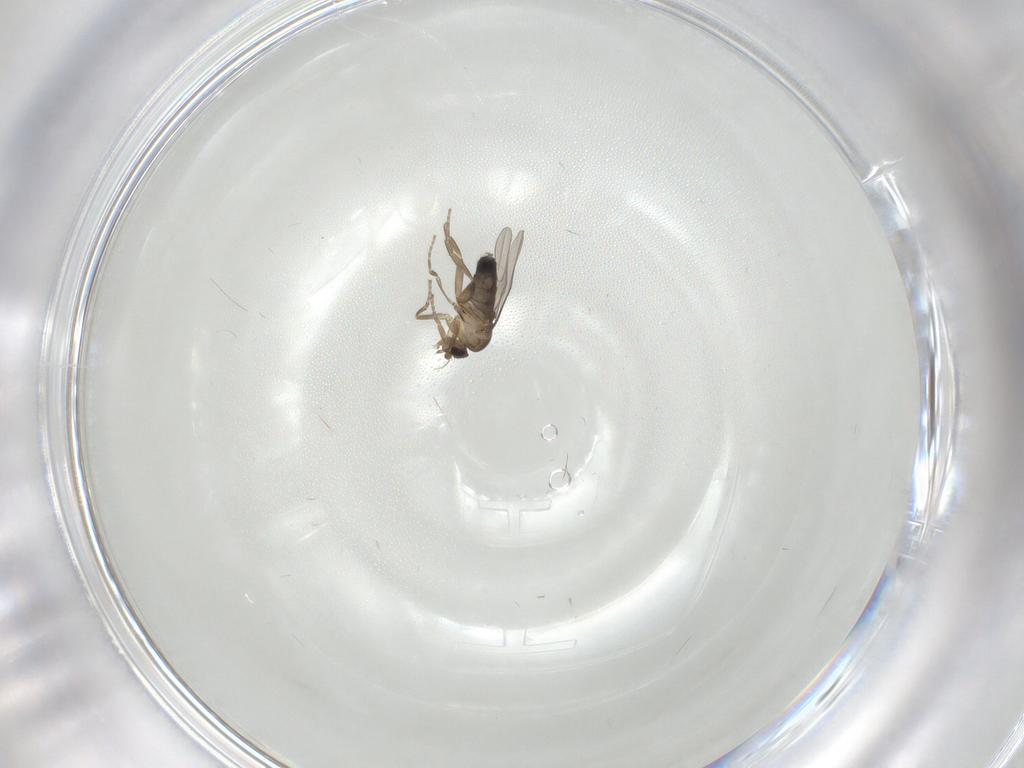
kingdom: Animalia
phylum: Arthropoda
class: Insecta
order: Diptera
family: Phoridae
